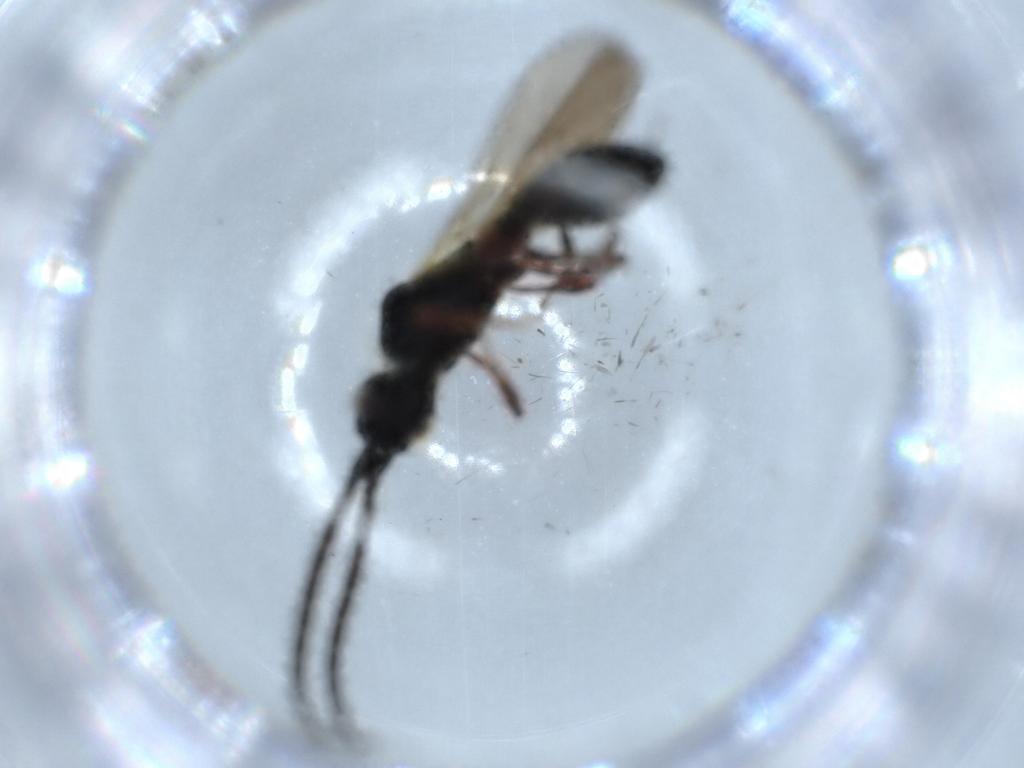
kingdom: Animalia
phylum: Arthropoda
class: Insecta
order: Hymenoptera
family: Diapriidae
